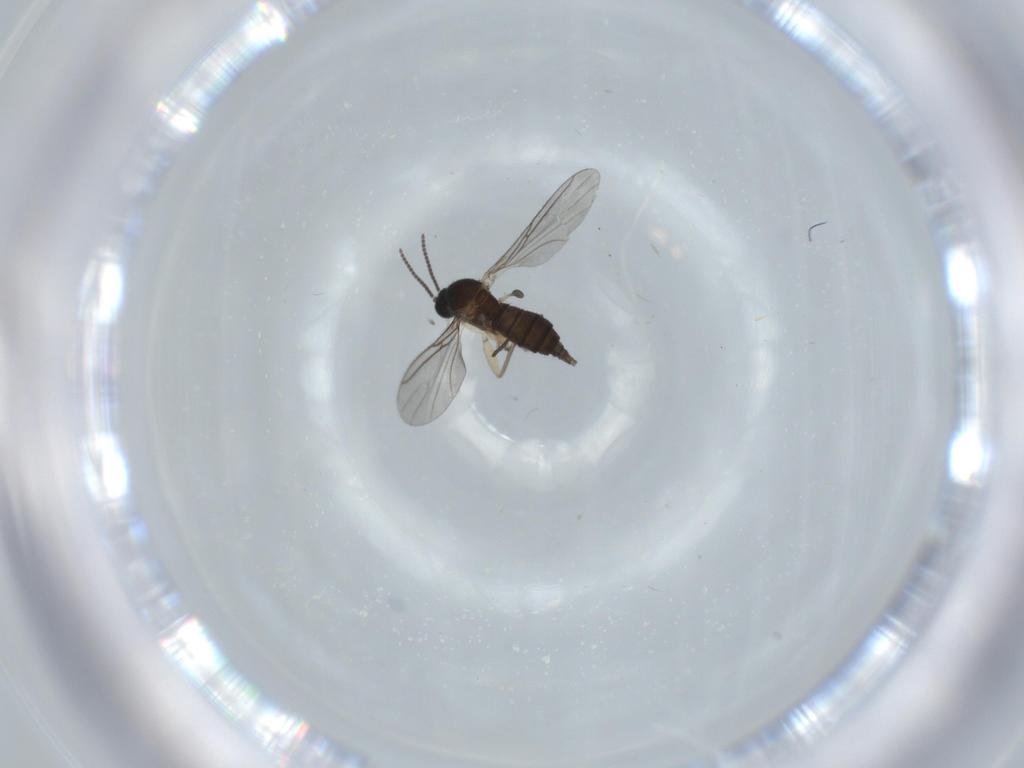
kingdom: Animalia
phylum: Arthropoda
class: Insecta
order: Diptera
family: Sciaridae
